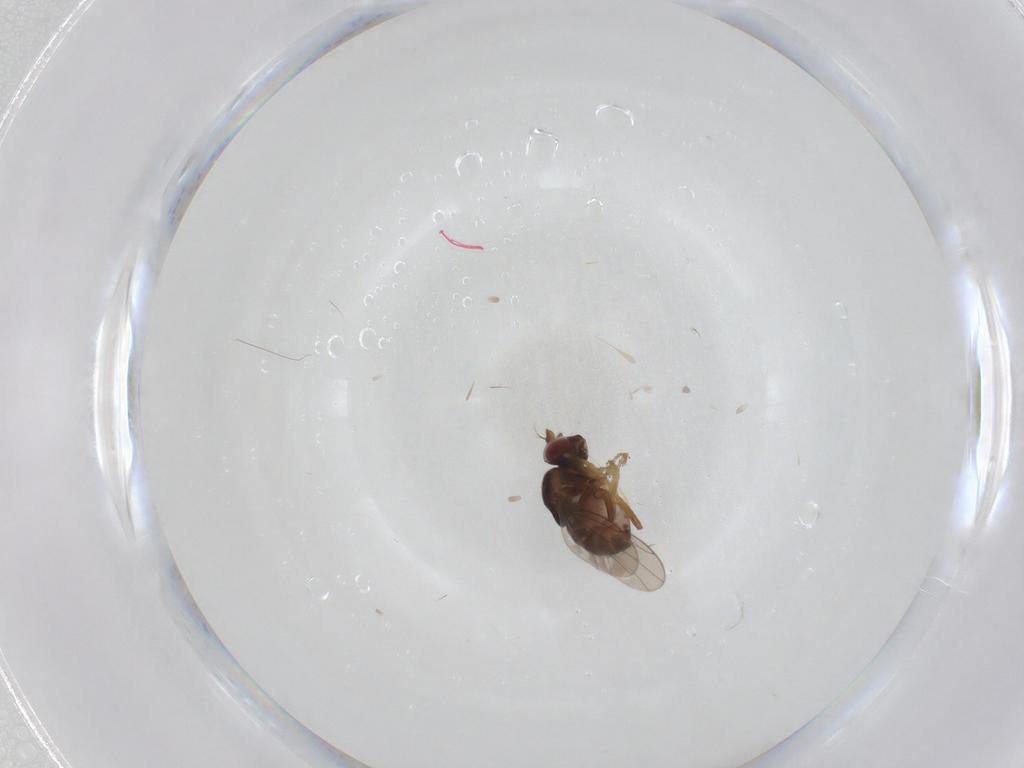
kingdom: Animalia
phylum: Arthropoda
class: Insecta
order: Diptera
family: Ephydridae
